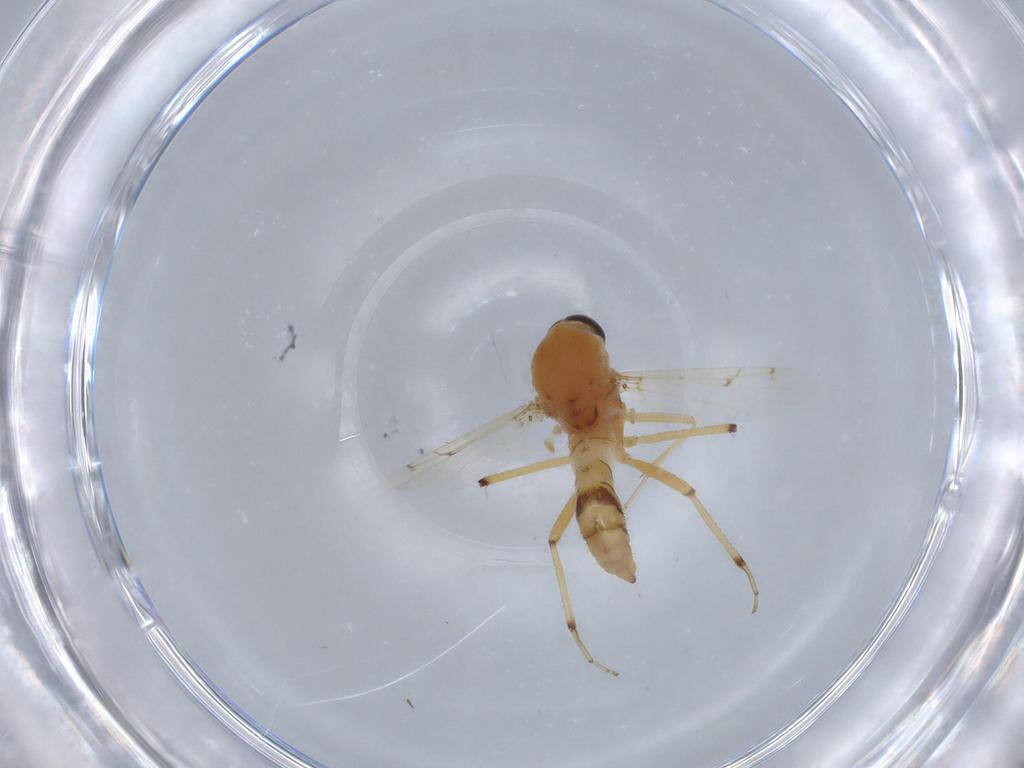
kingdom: Animalia
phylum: Arthropoda
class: Insecta
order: Diptera
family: Ceratopogonidae
